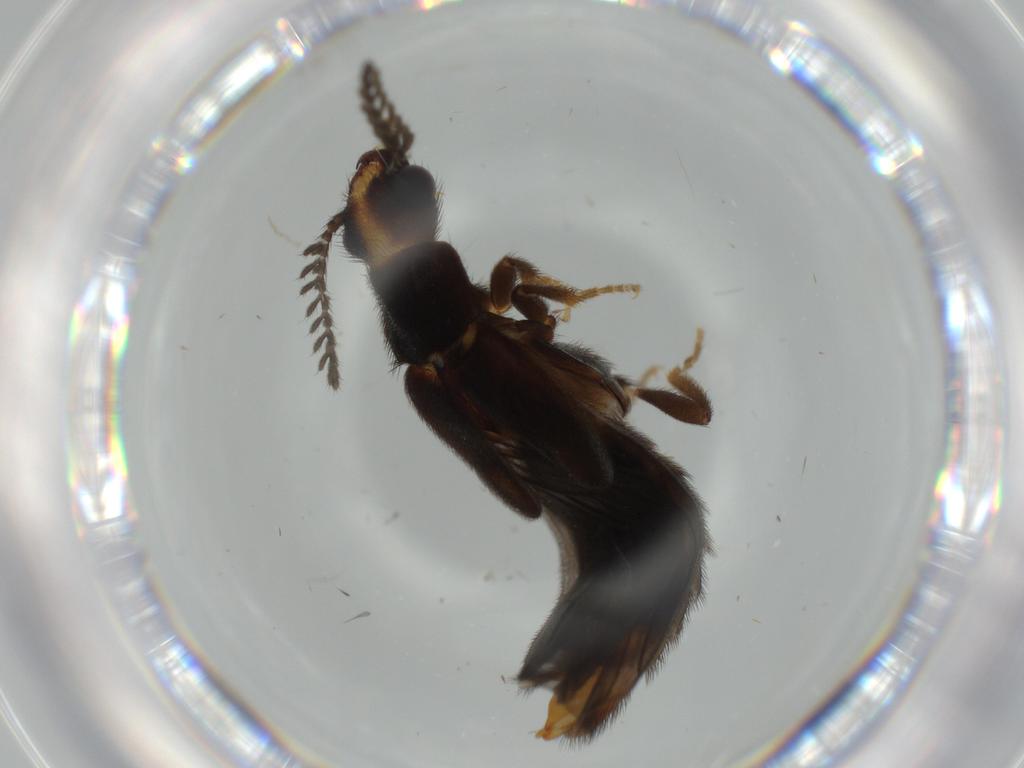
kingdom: Animalia
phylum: Arthropoda
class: Insecta
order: Coleoptera
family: Phengodidae
